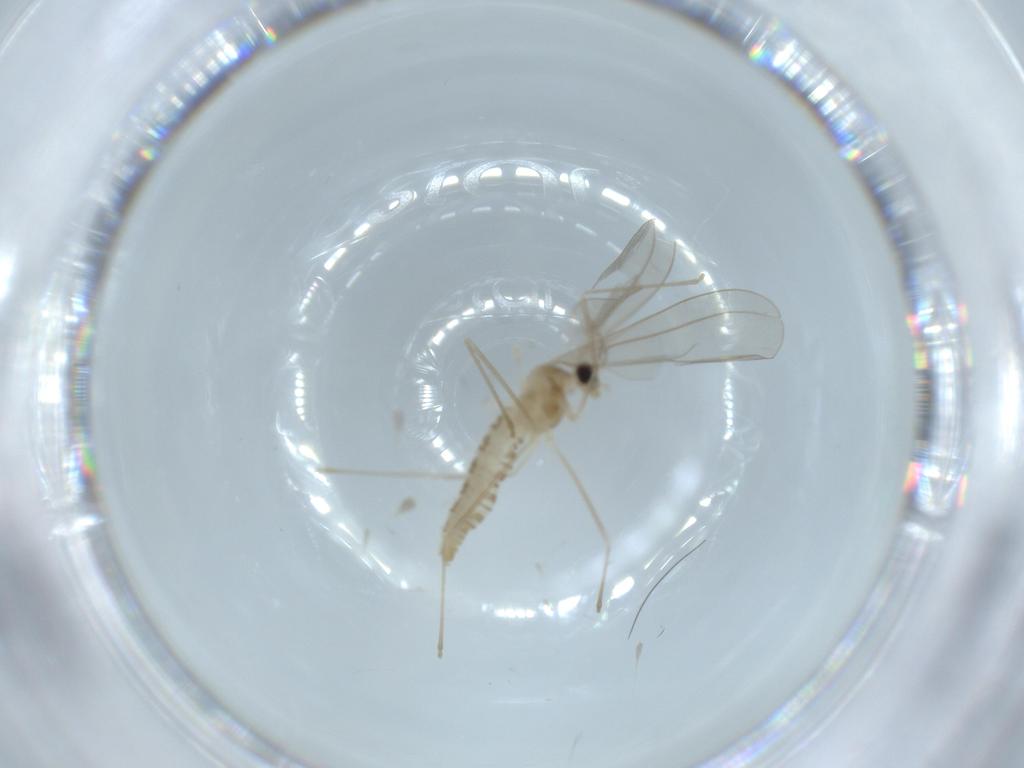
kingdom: Animalia
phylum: Arthropoda
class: Insecta
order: Diptera
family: Cecidomyiidae
